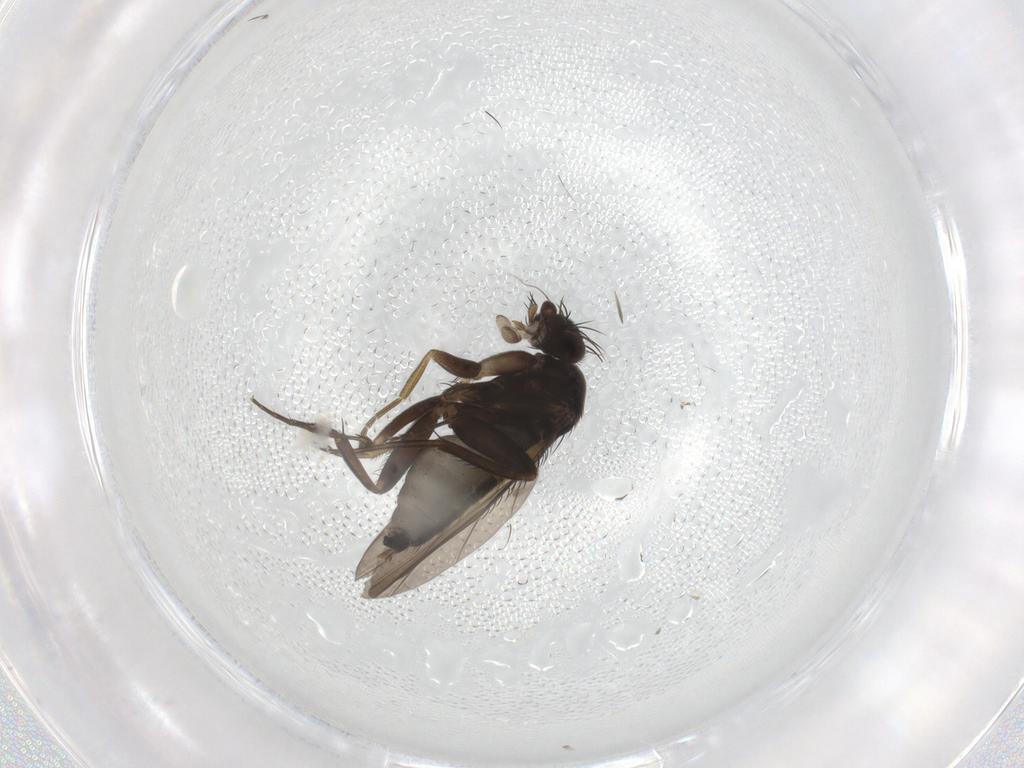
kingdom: Animalia
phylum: Arthropoda
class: Insecta
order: Diptera
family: Phoridae
